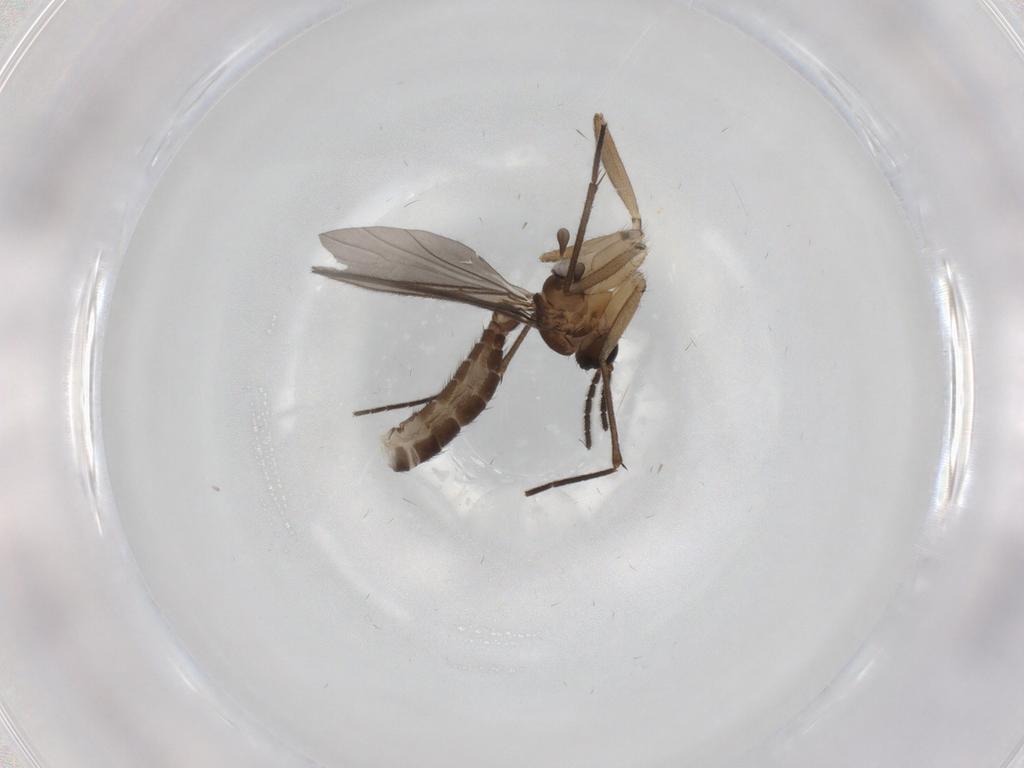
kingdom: Animalia
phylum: Arthropoda
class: Insecta
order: Diptera
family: Sciaridae
